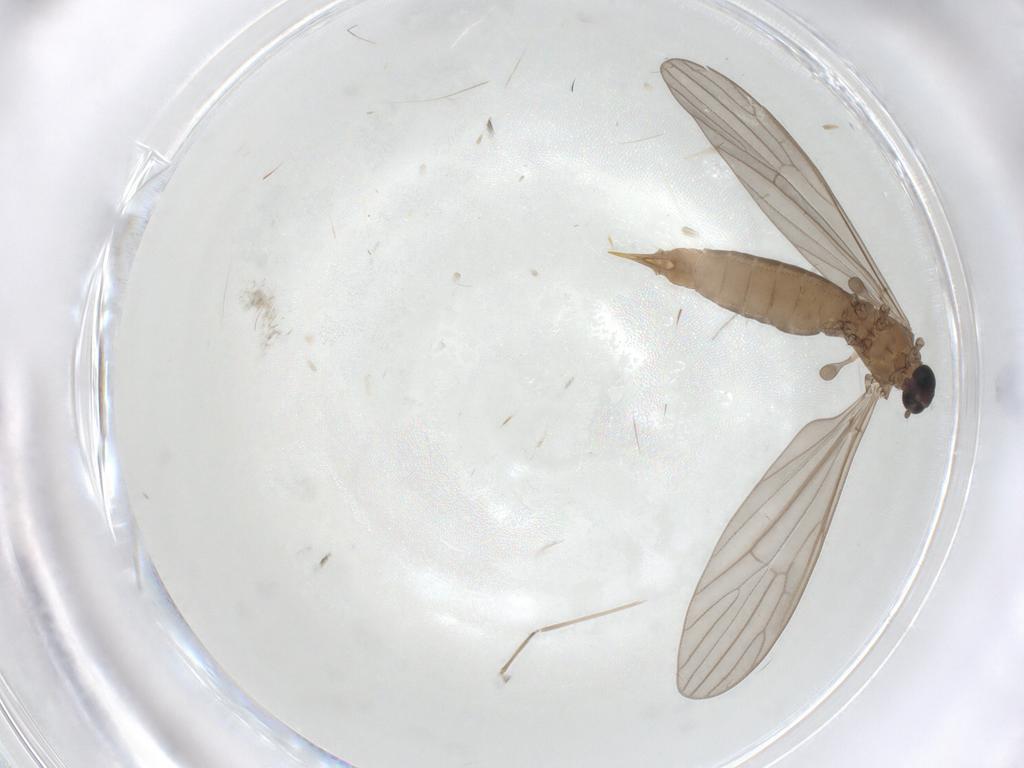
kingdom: Animalia
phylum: Arthropoda
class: Insecta
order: Diptera
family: Limoniidae
